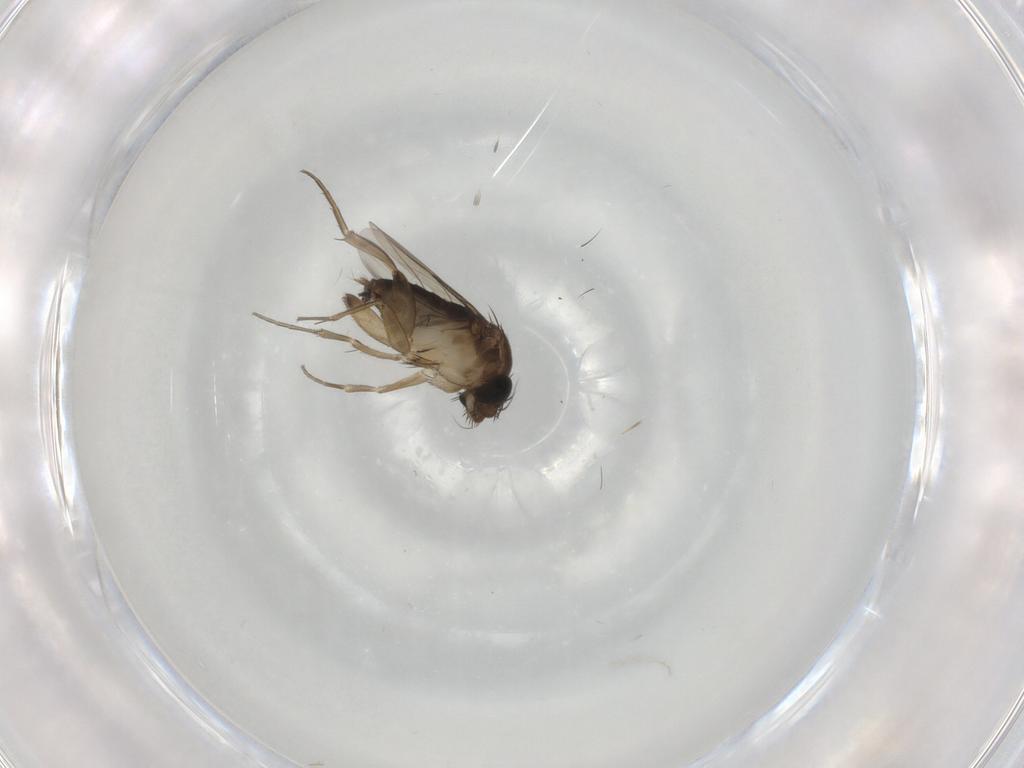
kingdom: Animalia
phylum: Arthropoda
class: Insecta
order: Diptera
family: Phoridae
